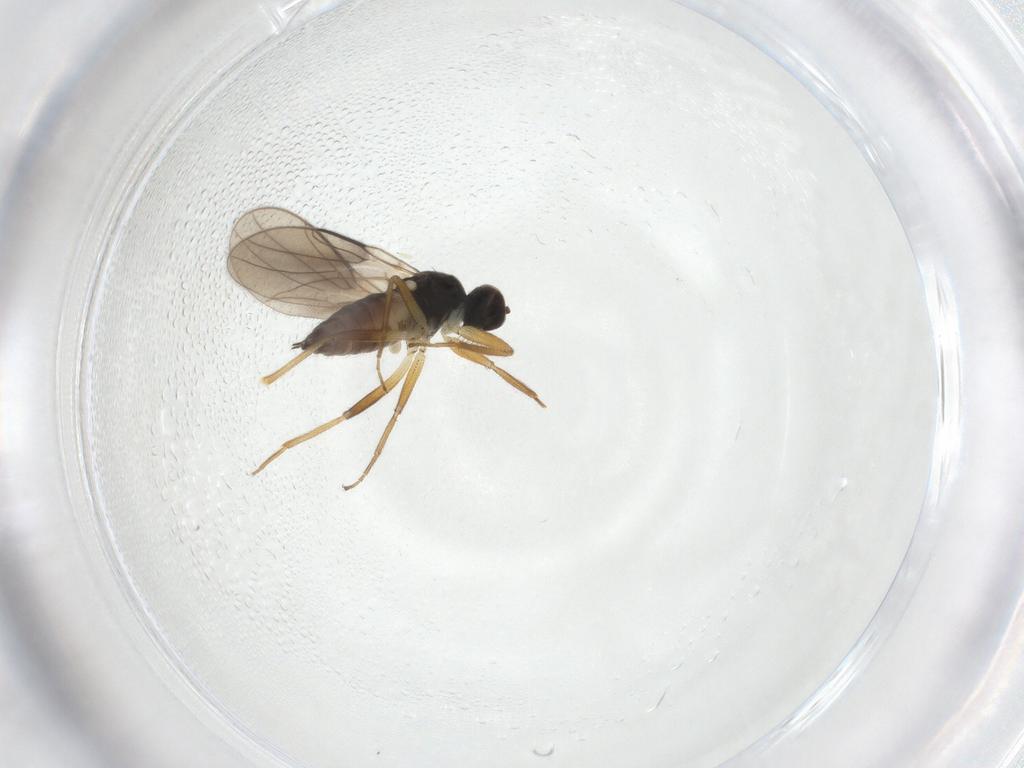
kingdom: Animalia
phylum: Arthropoda
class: Insecta
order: Diptera
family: Hybotidae
